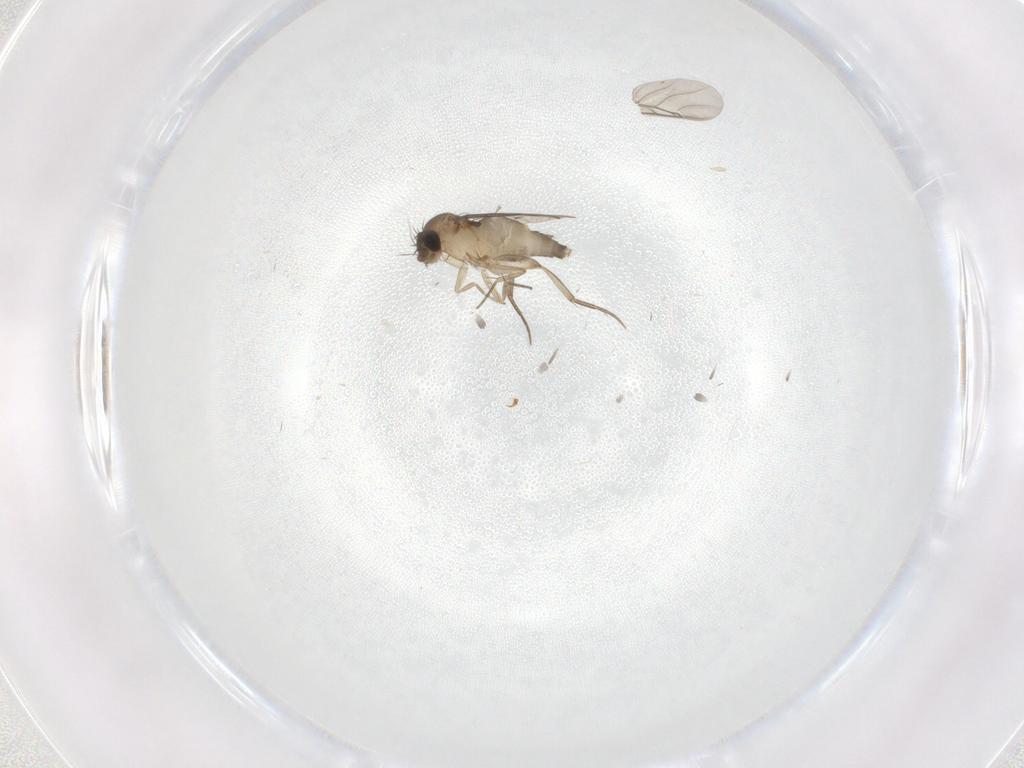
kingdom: Animalia
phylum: Arthropoda
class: Insecta
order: Diptera
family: Phoridae
